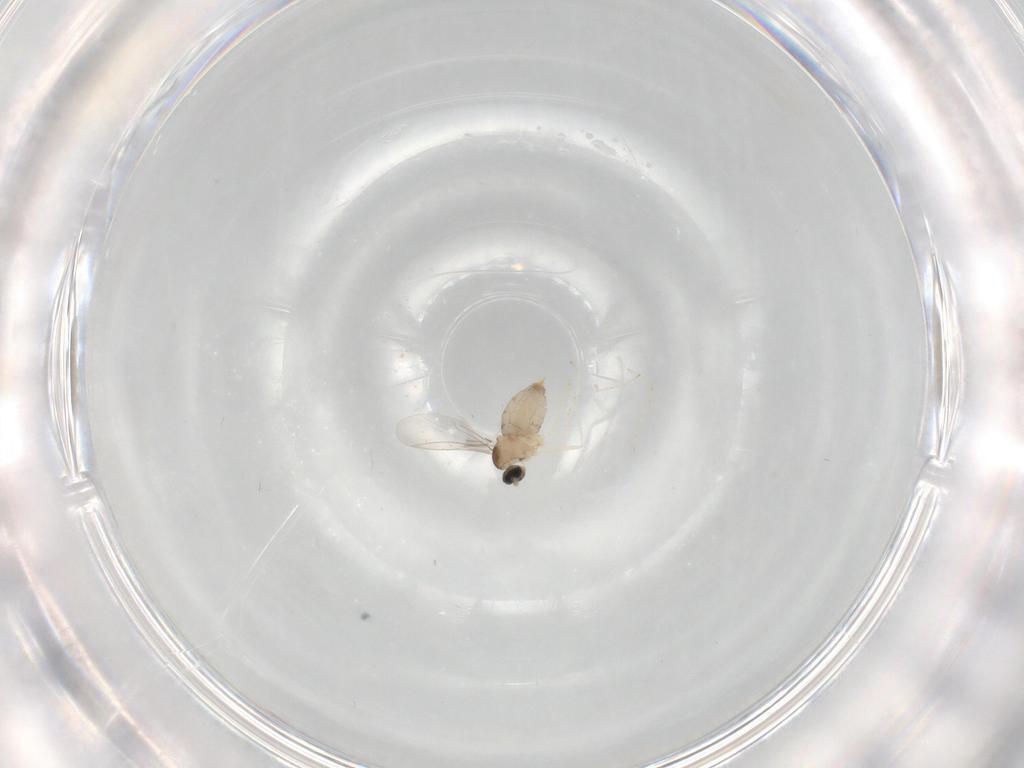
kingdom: Animalia
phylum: Arthropoda
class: Insecta
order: Diptera
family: Cecidomyiidae
